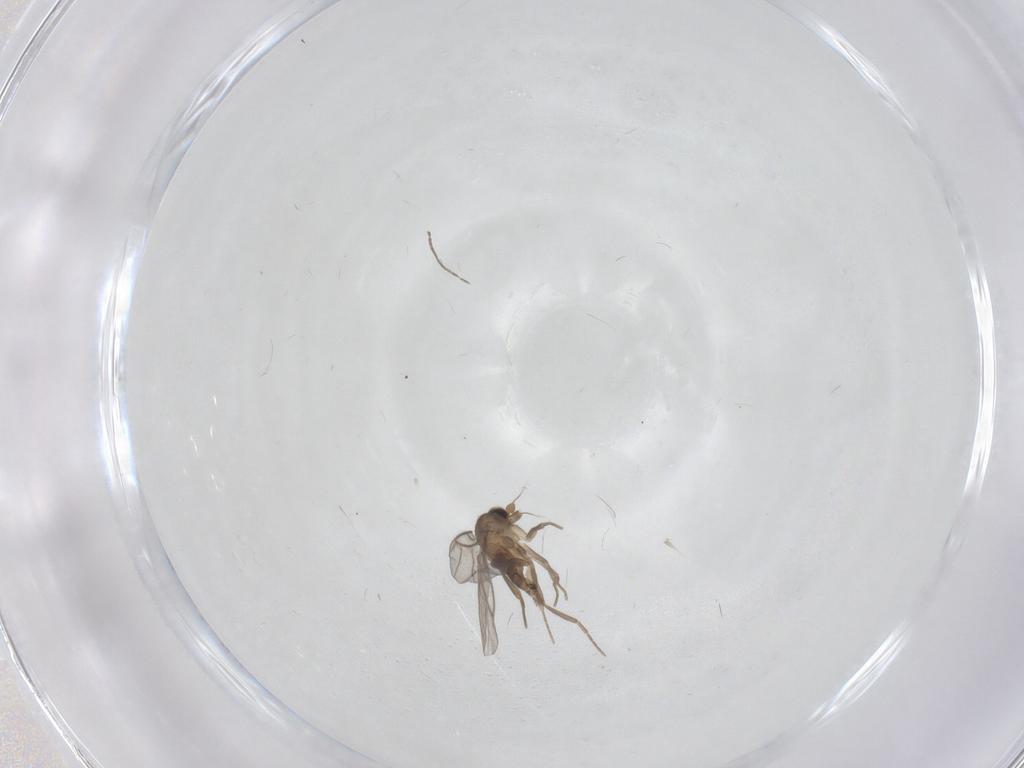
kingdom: Animalia
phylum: Arthropoda
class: Insecta
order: Diptera
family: Cecidomyiidae
